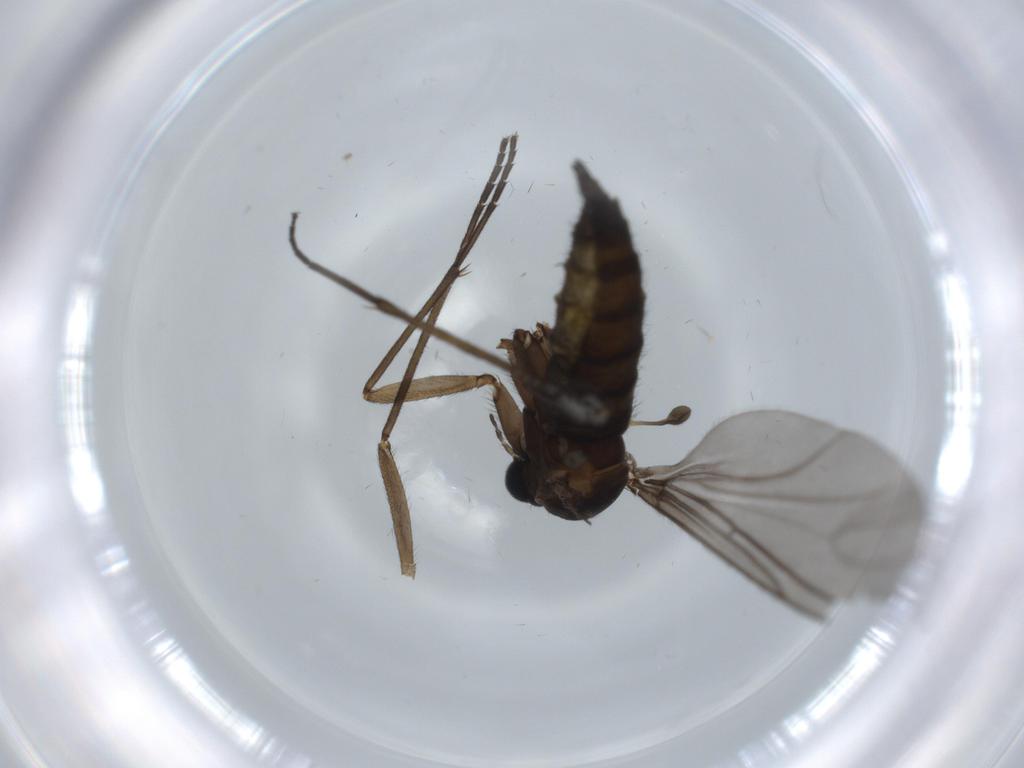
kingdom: Animalia
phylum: Arthropoda
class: Insecta
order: Diptera
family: Sciaridae
